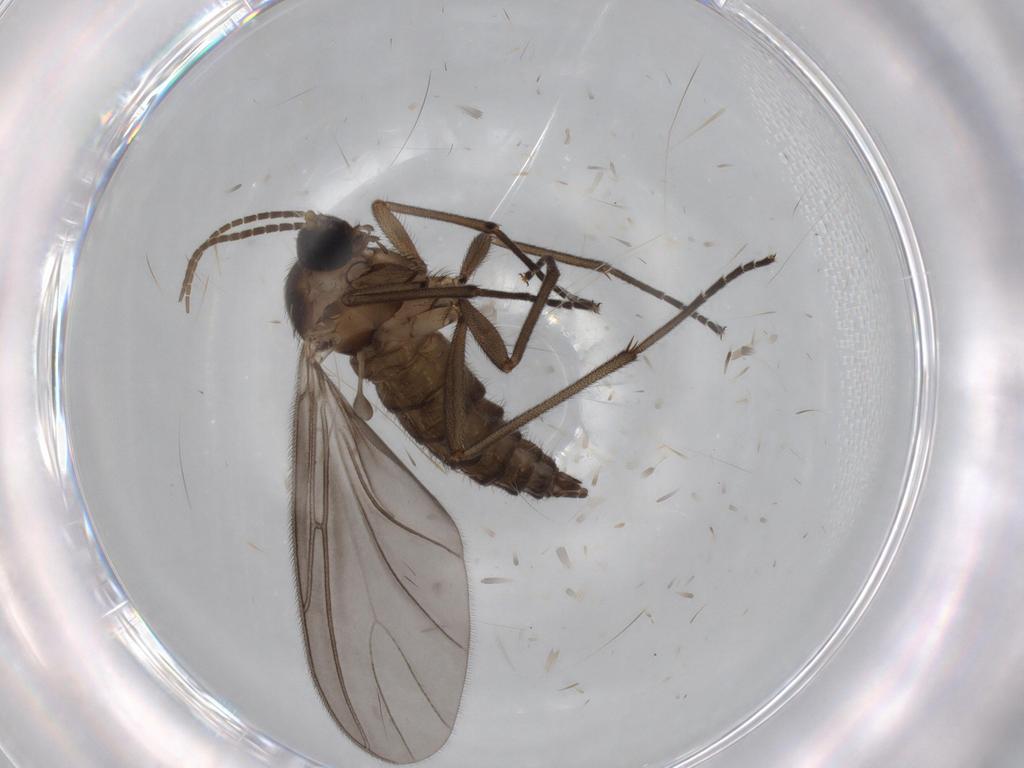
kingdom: Animalia
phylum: Arthropoda
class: Insecta
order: Diptera
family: Sciaridae
